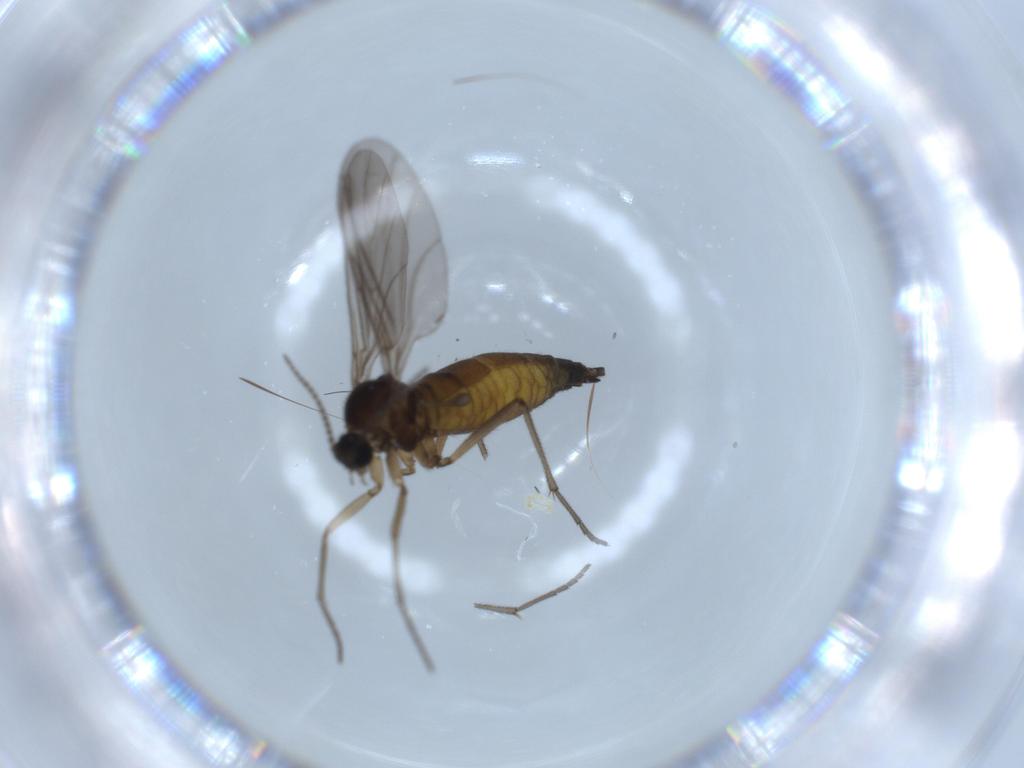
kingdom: Animalia
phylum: Arthropoda
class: Insecta
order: Diptera
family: Sciaridae
